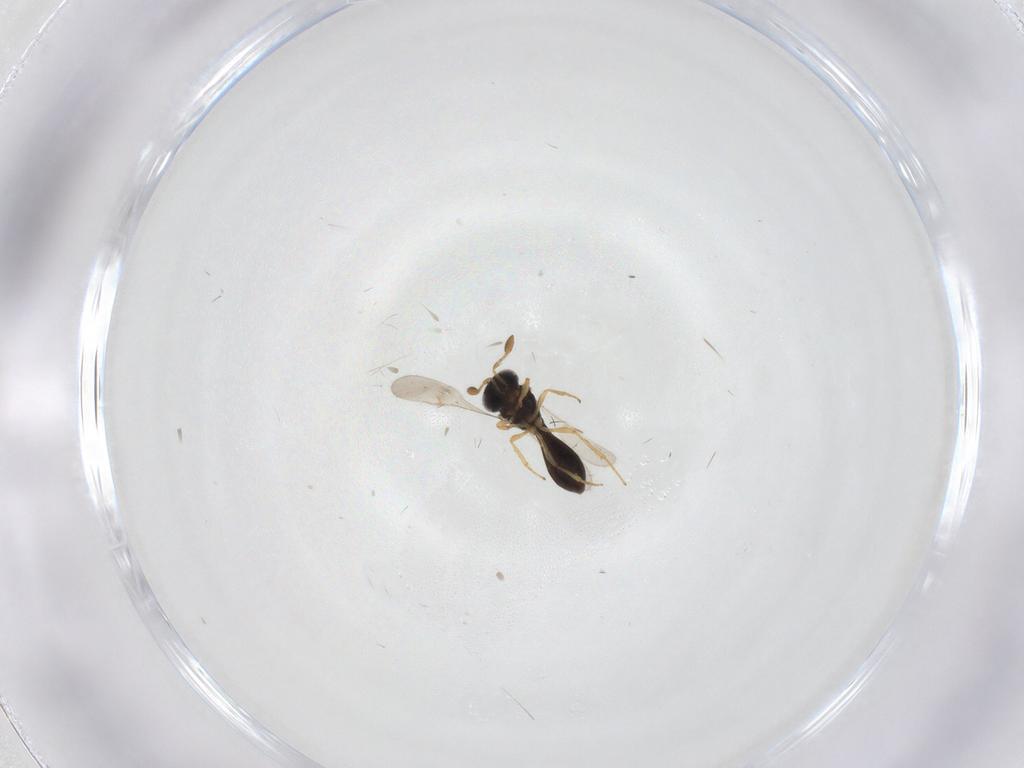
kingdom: Animalia
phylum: Arthropoda
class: Insecta
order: Hymenoptera
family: Scelionidae
